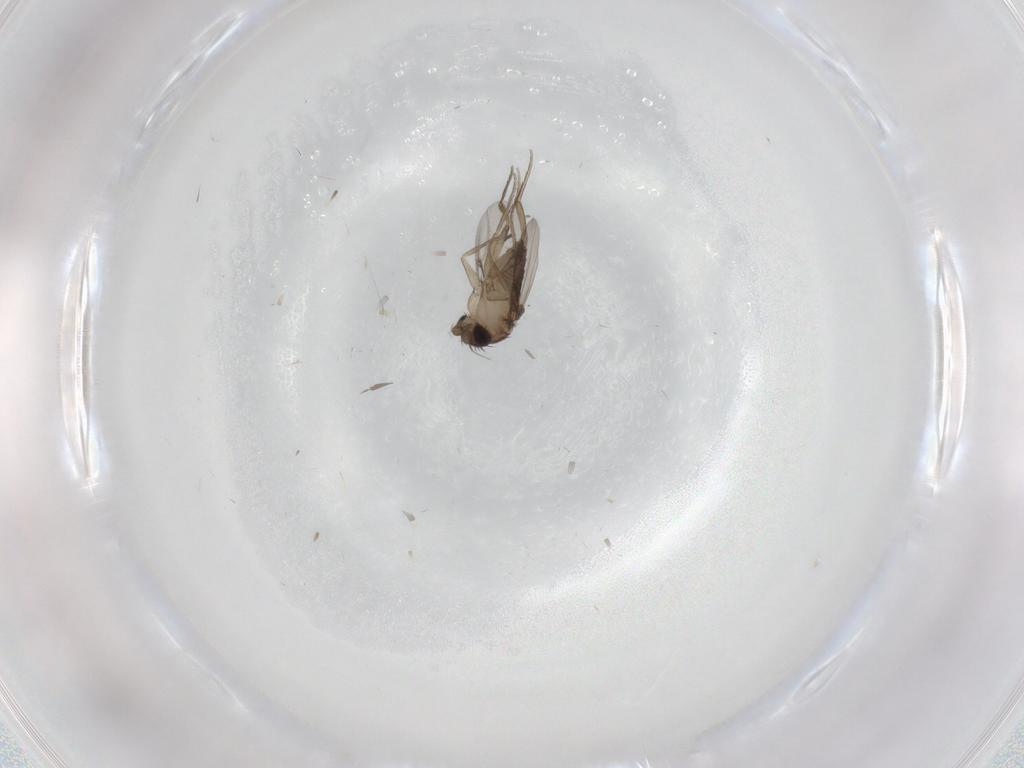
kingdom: Animalia
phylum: Arthropoda
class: Insecta
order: Diptera
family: Phoridae
